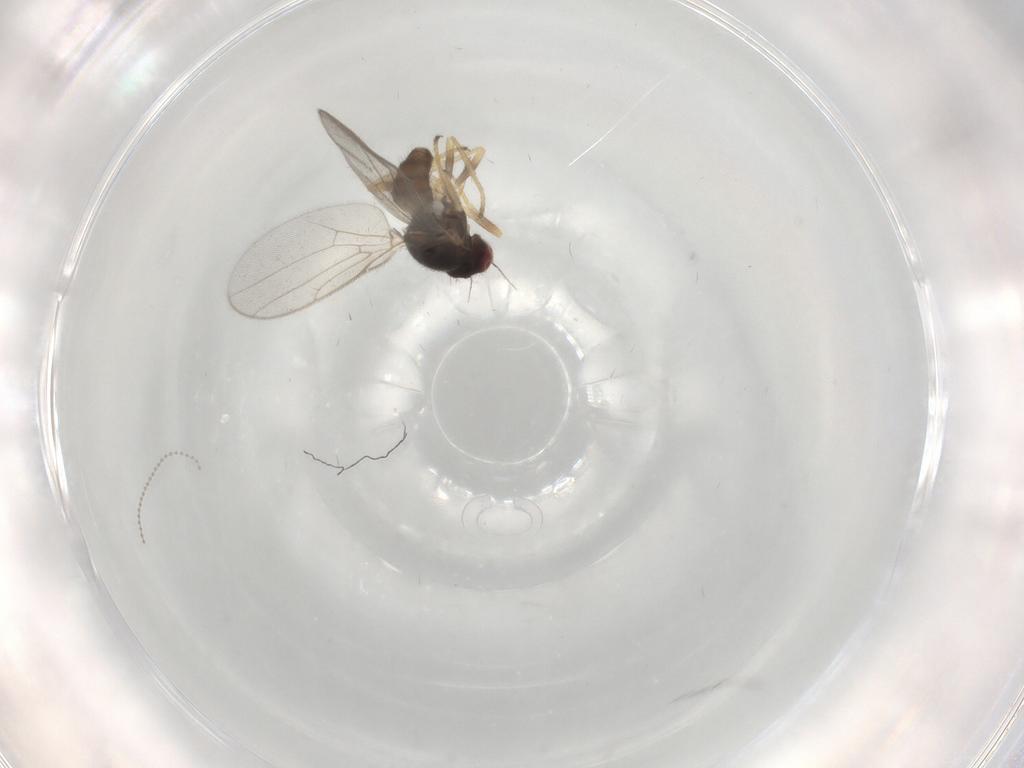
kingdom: Animalia
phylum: Arthropoda
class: Insecta
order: Diptera
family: Chloropidae
